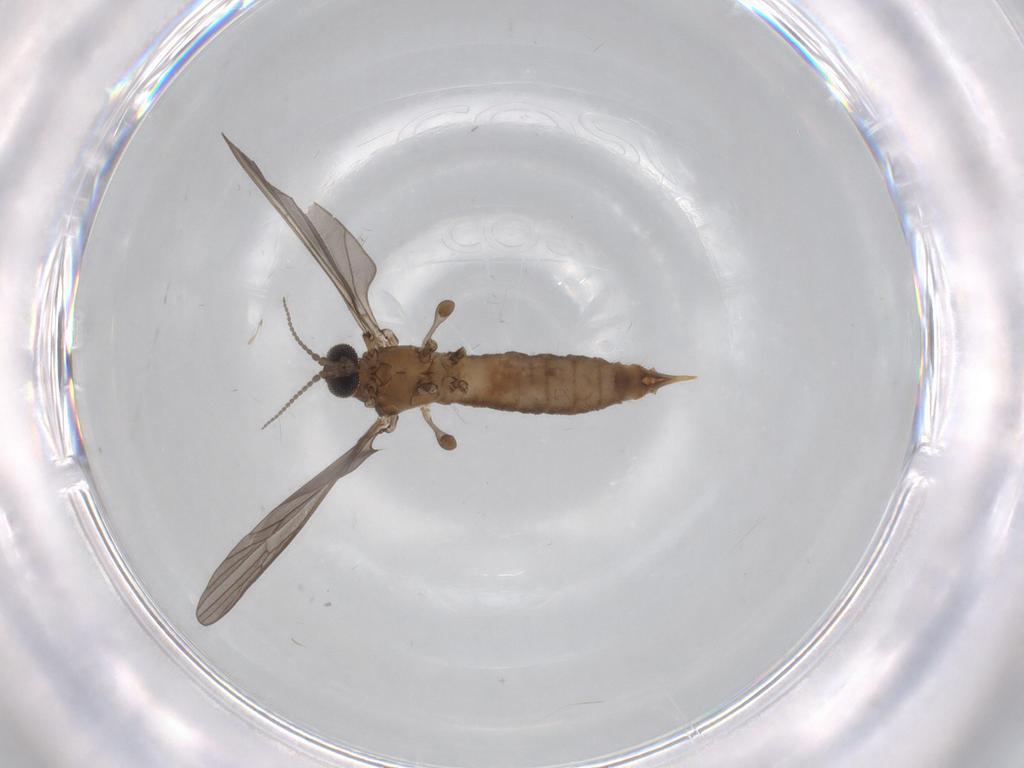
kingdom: Animalia
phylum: Arthropoda
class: Insecta
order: Diptera
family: Limoniidae
